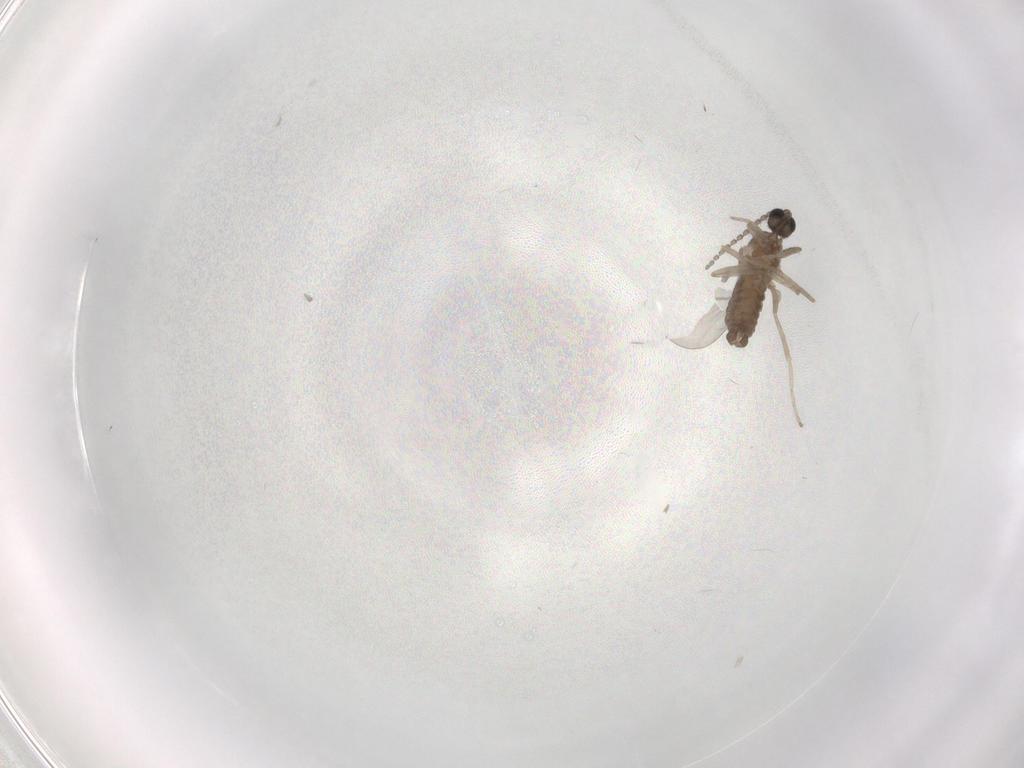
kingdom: Animalia
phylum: Arthropoda
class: Insecta
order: Diptera
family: Cecidomyiidae
